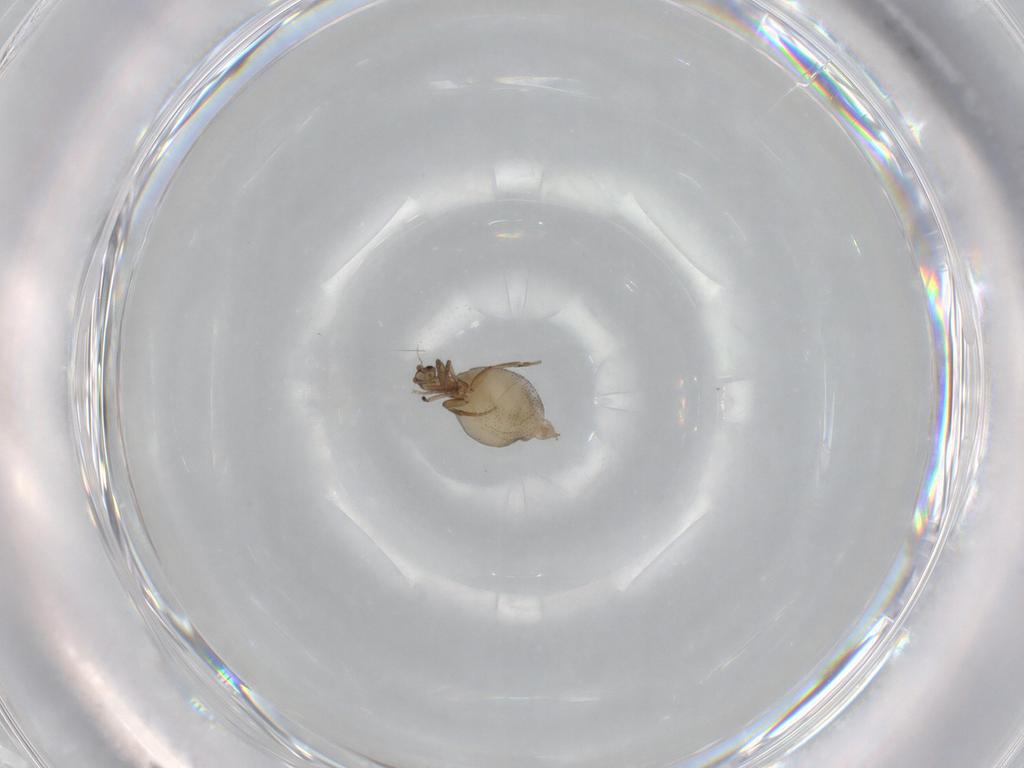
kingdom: Animalia
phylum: Arthropoda
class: Insecta
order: Diptera
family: Phoridae
